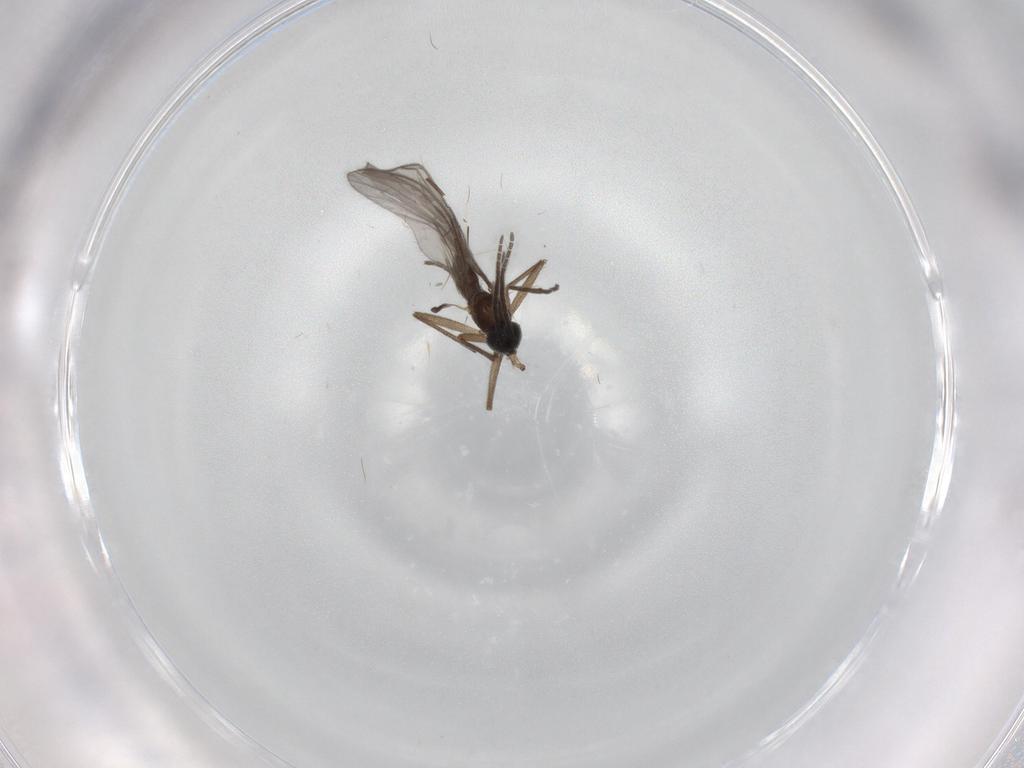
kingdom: Animalia
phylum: Arthropoda
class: Insecta
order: Diptera
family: Sciaridae
